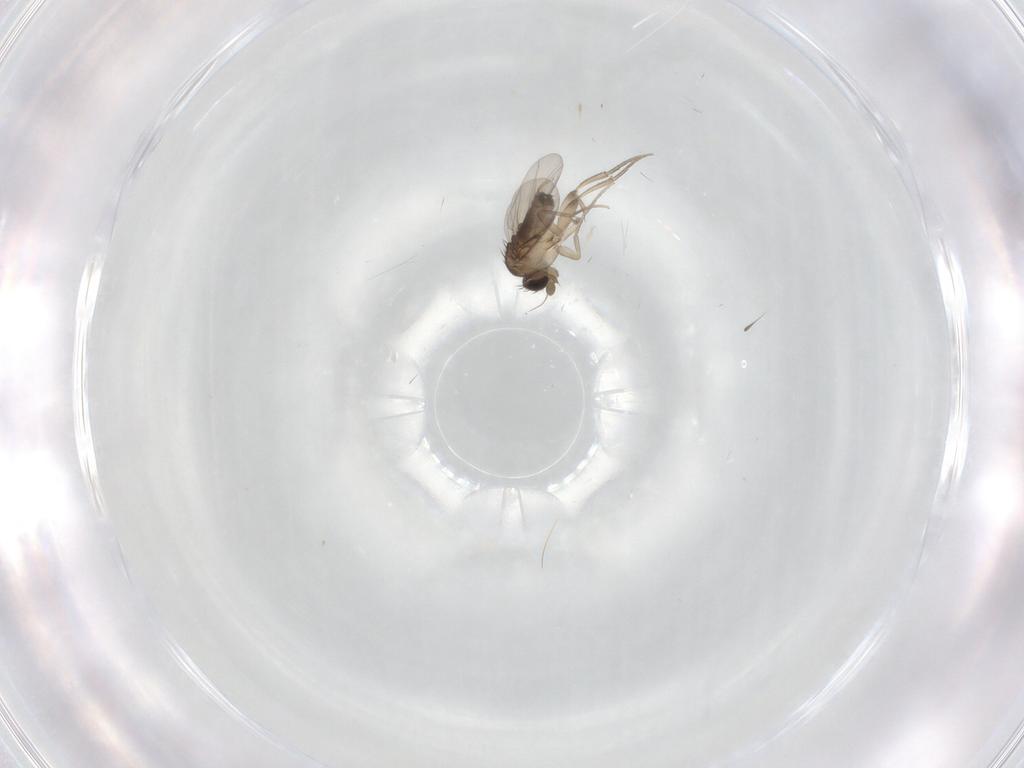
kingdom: Animalia
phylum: Arthropoda
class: Insecta
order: Diptera
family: Phoridae
